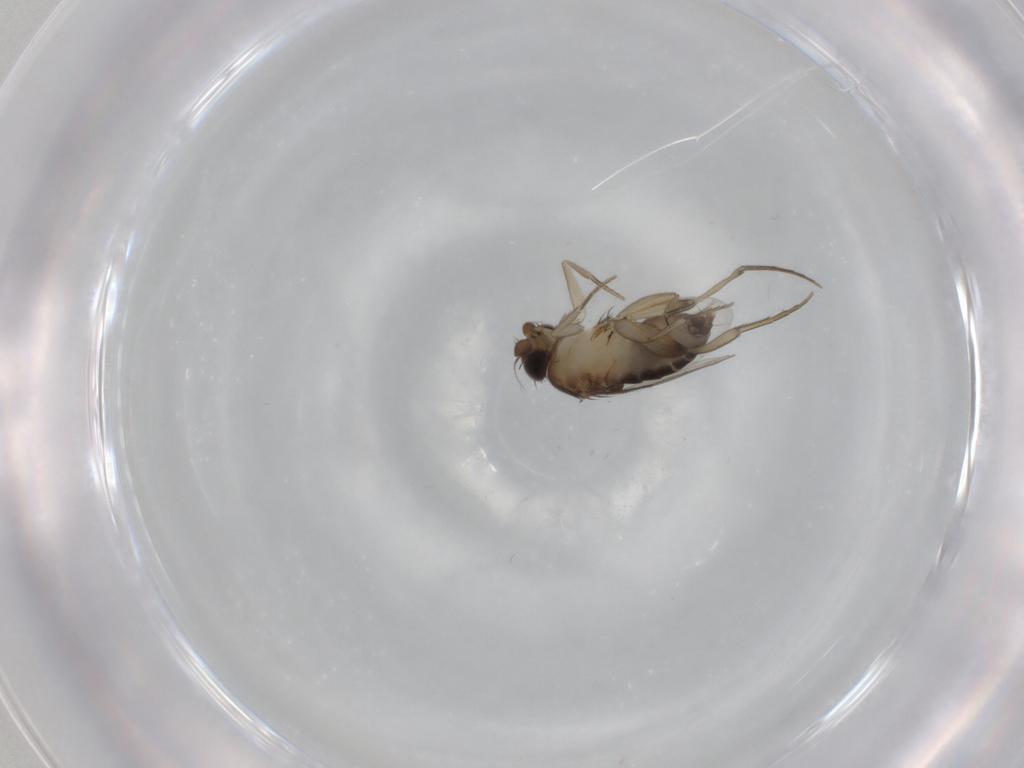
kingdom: Animalia
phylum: Arthropoda
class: Insecta
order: Diptera
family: Phoridae
